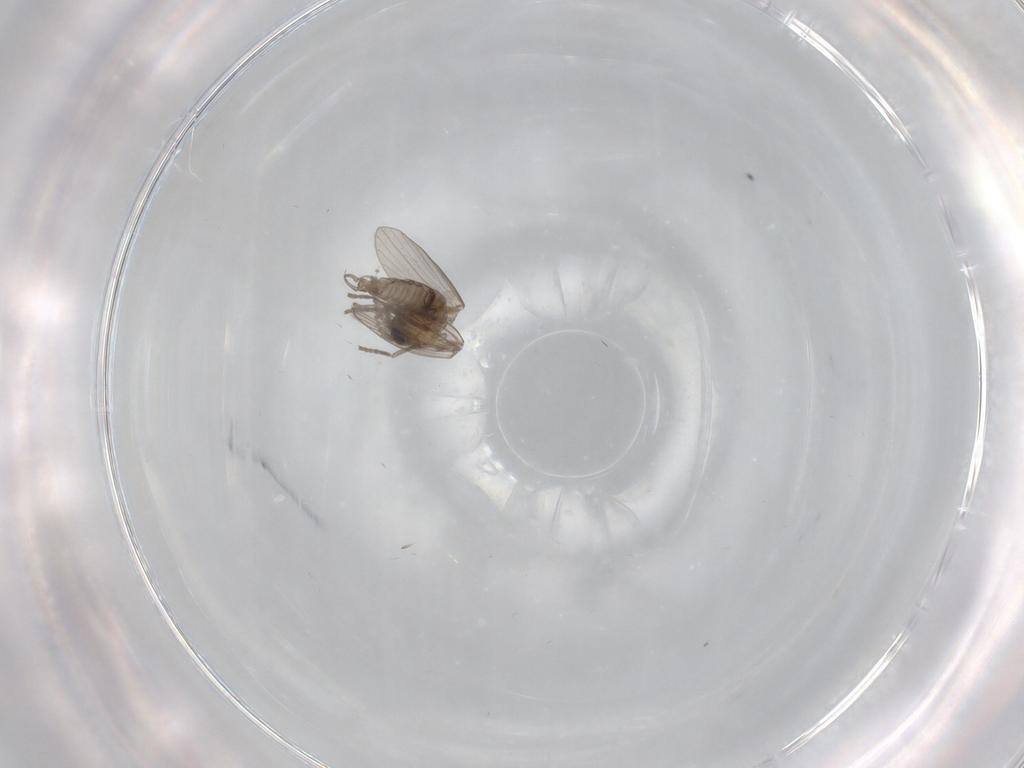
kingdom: Animalia
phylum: Arthropoda
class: Insecta
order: Diptera
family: Psychodidae
